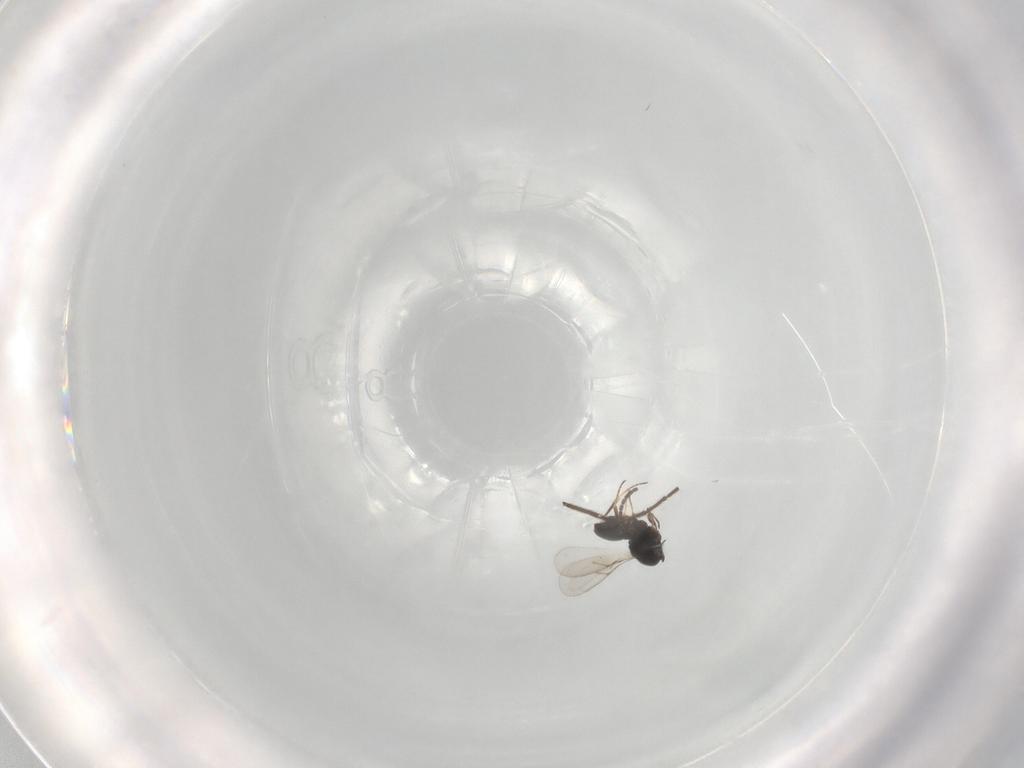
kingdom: Animalia
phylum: Arthropoda
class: Insecta
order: Hymenoptera
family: Scelionidae
